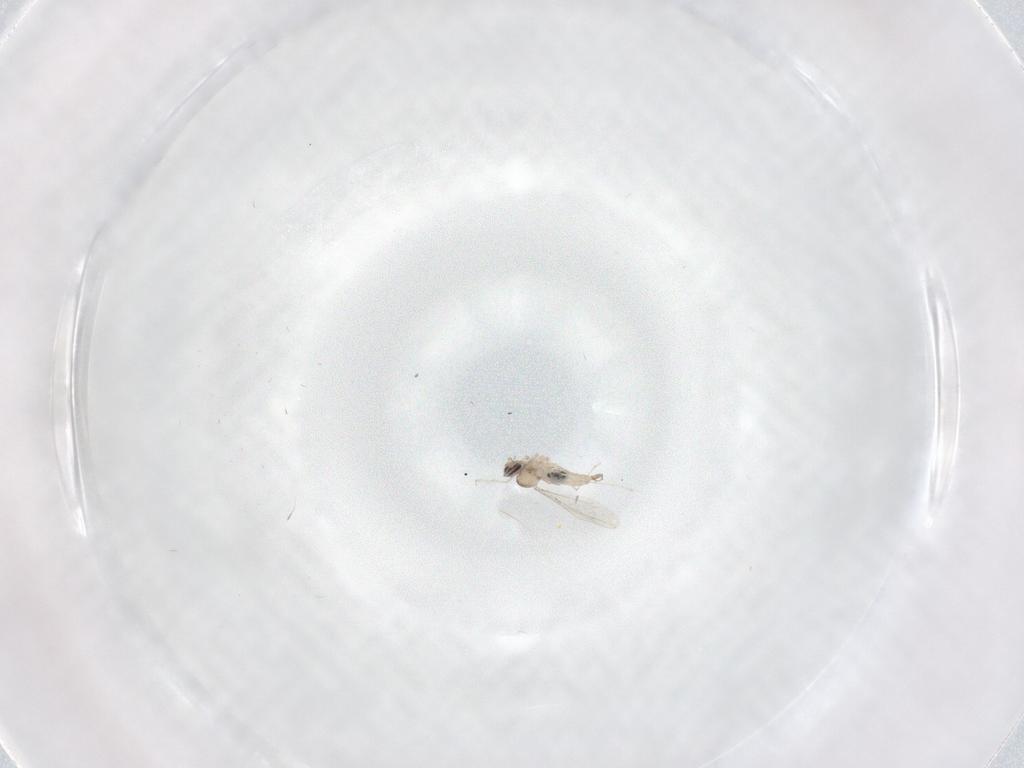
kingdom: Animalia
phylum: Arthropoda
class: Insecta
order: Diptera
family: Cecidomyiidae
